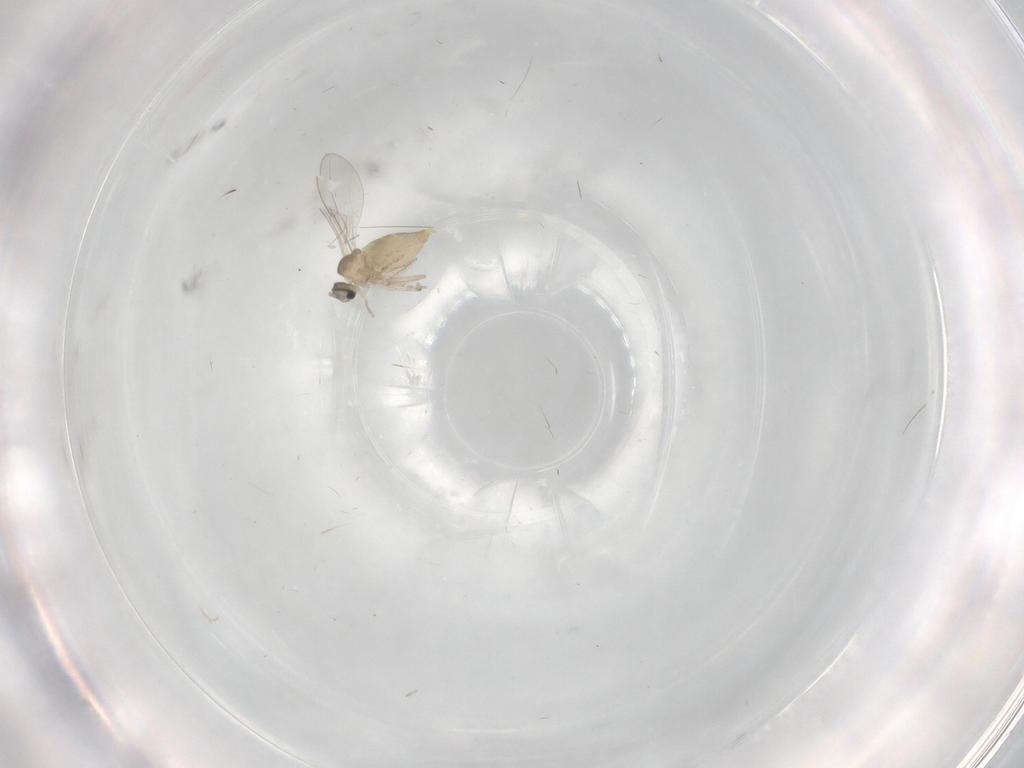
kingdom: Animalia
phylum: Arthropoda
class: Insecta
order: Diptera
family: Cecidomyiidae
